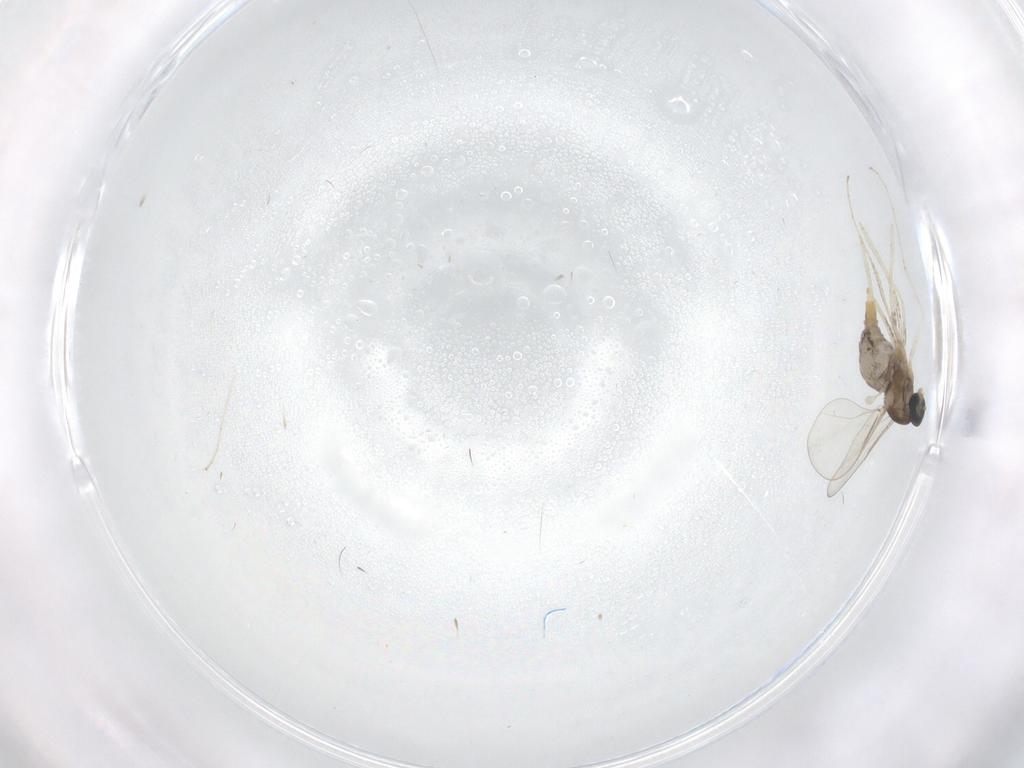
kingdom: Animalia
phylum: Arthropoda
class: Insecta
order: Diptera
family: Cecidomyiidae
